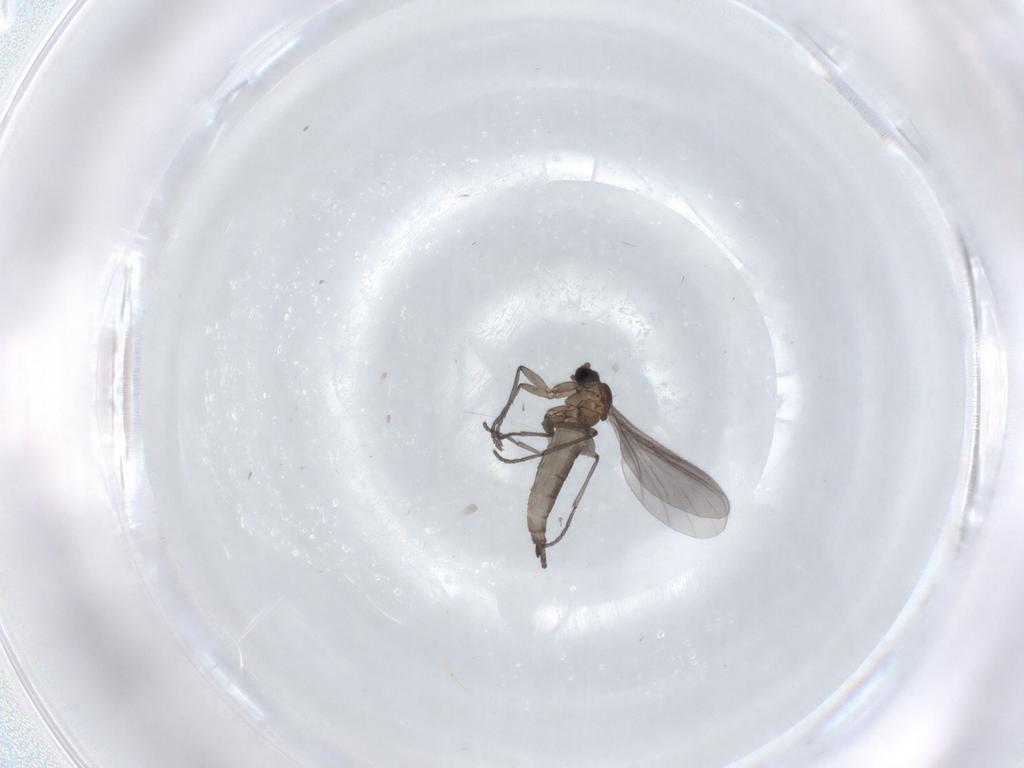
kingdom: Animalia
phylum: Arthropoda
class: Insecta
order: Diptera
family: Sciaridae
